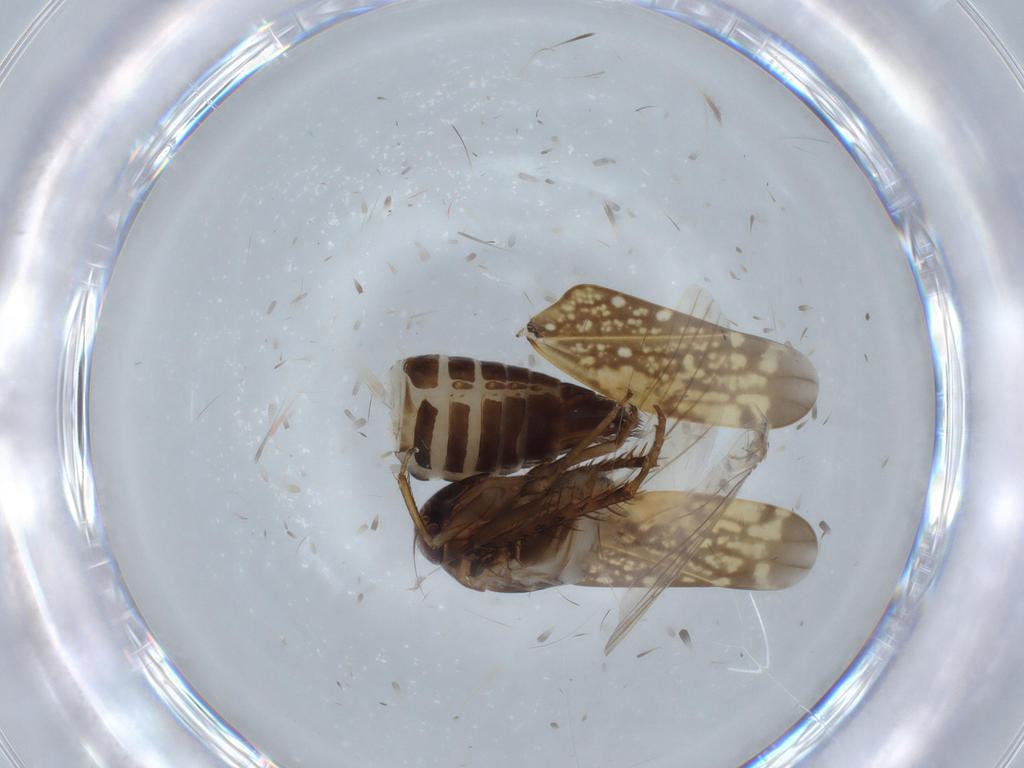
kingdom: Animalia
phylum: Arthropoda
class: Insecta
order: Hemiptera
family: Cicadellidae
